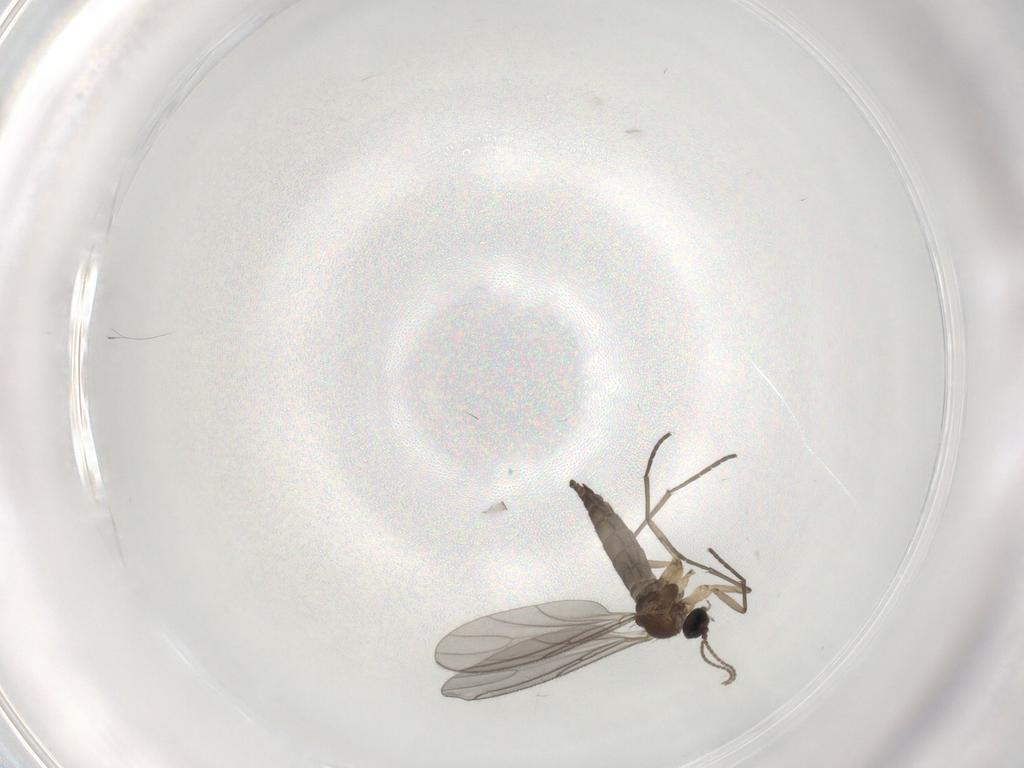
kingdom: Animalia
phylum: Arthropoda
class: Insecta
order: Diptera
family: Sciaridae
